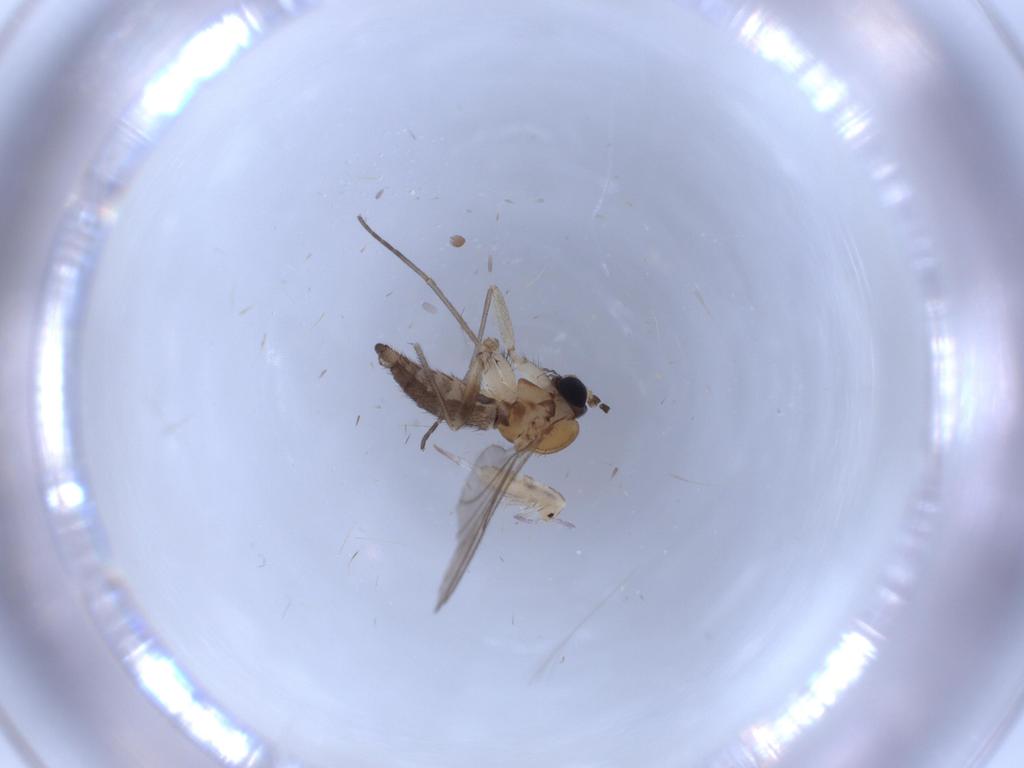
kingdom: Animalia
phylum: Arthropoda
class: Insecta
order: Diptera
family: Sciaridae
